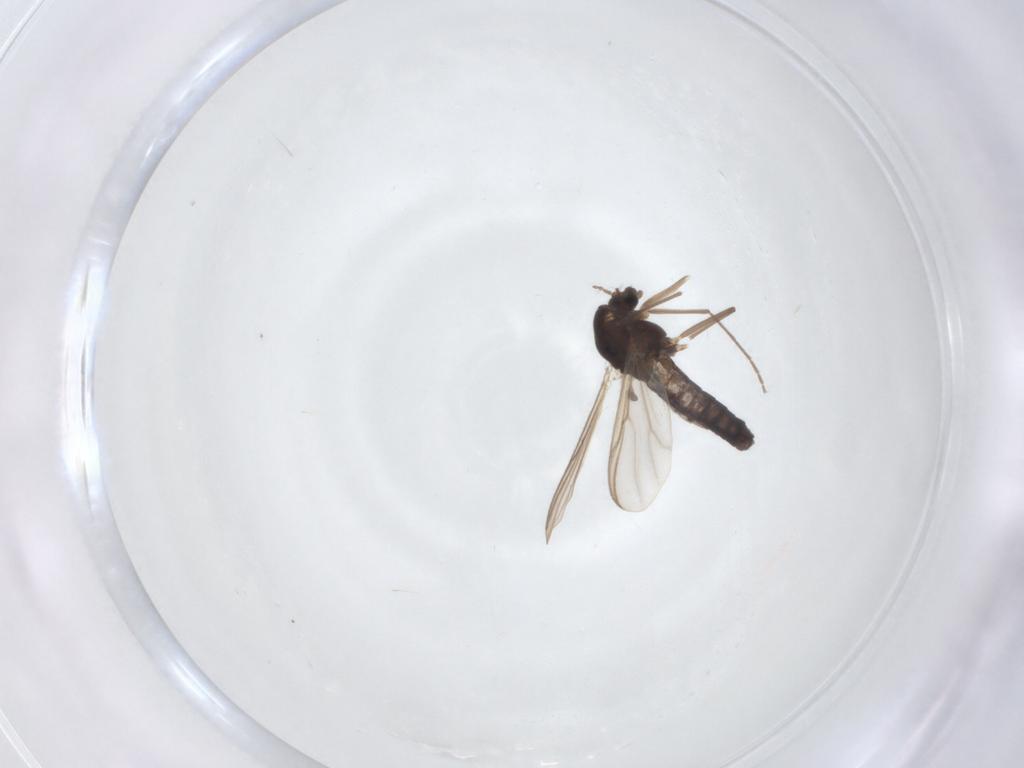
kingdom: Animalia
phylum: Arthropoda
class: Insecta
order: Diptera
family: Chironomidae
